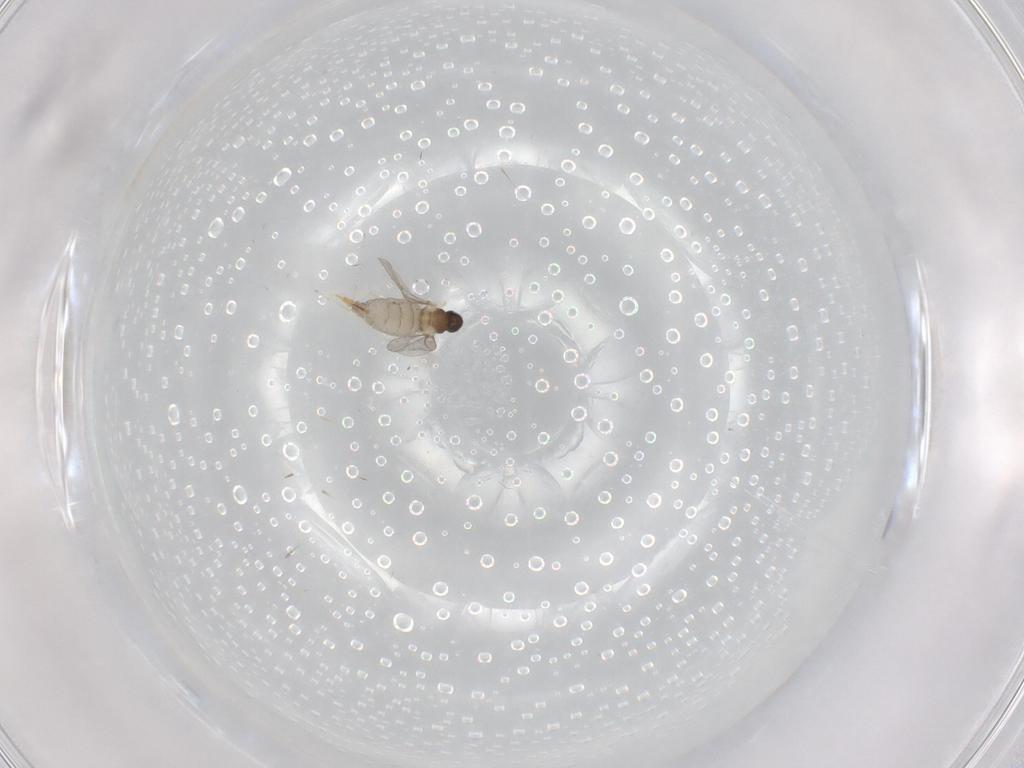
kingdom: Animalia
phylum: Arthropoda
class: Insecta
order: Diptera
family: Cecidomyiidae
